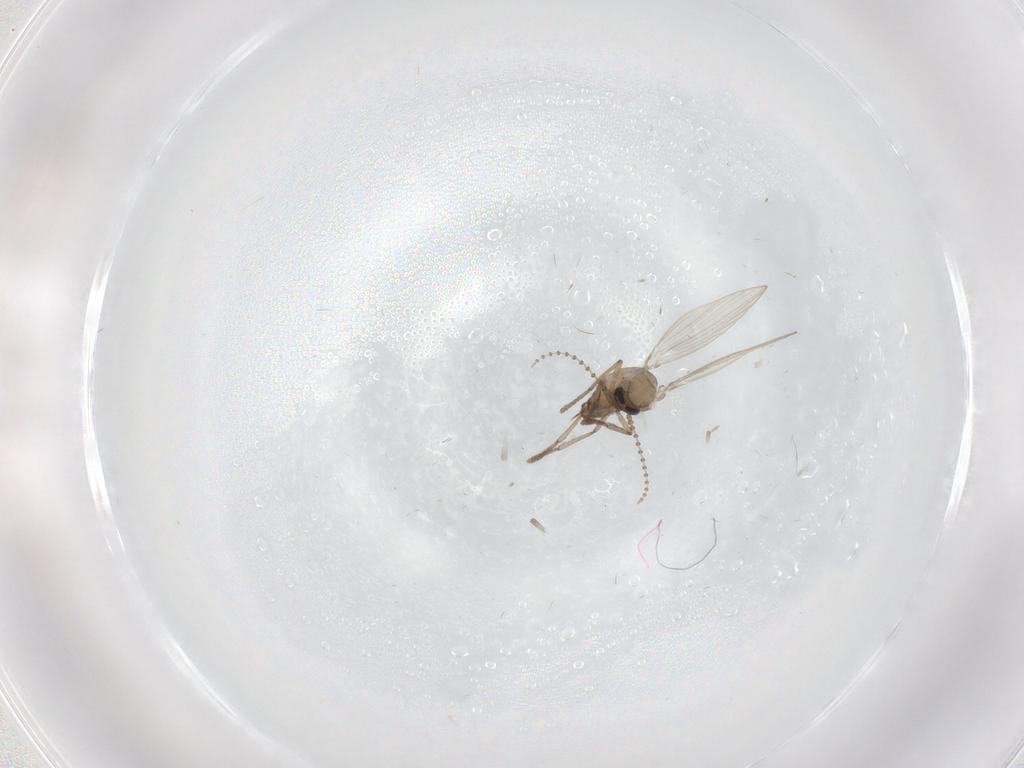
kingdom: Animalia
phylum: Arthropoda
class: Insecta
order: Diptera
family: Psychodidae
